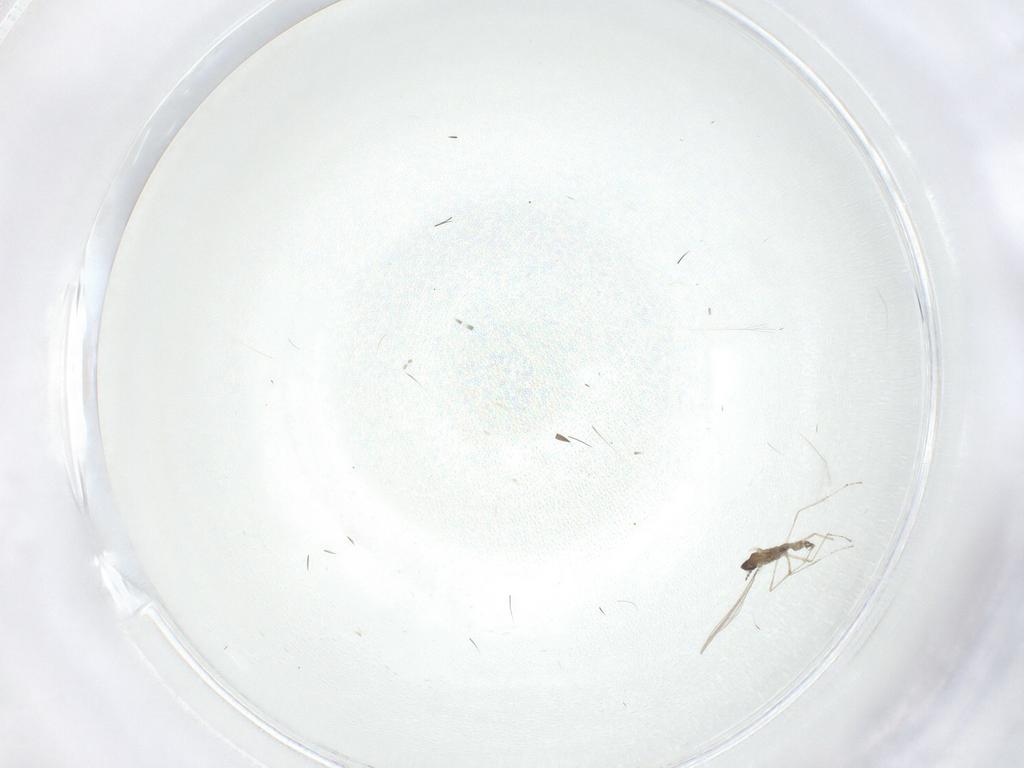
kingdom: Animalia
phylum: Arthropoda
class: Insecta
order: Diptera
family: Cecidomyiidae
